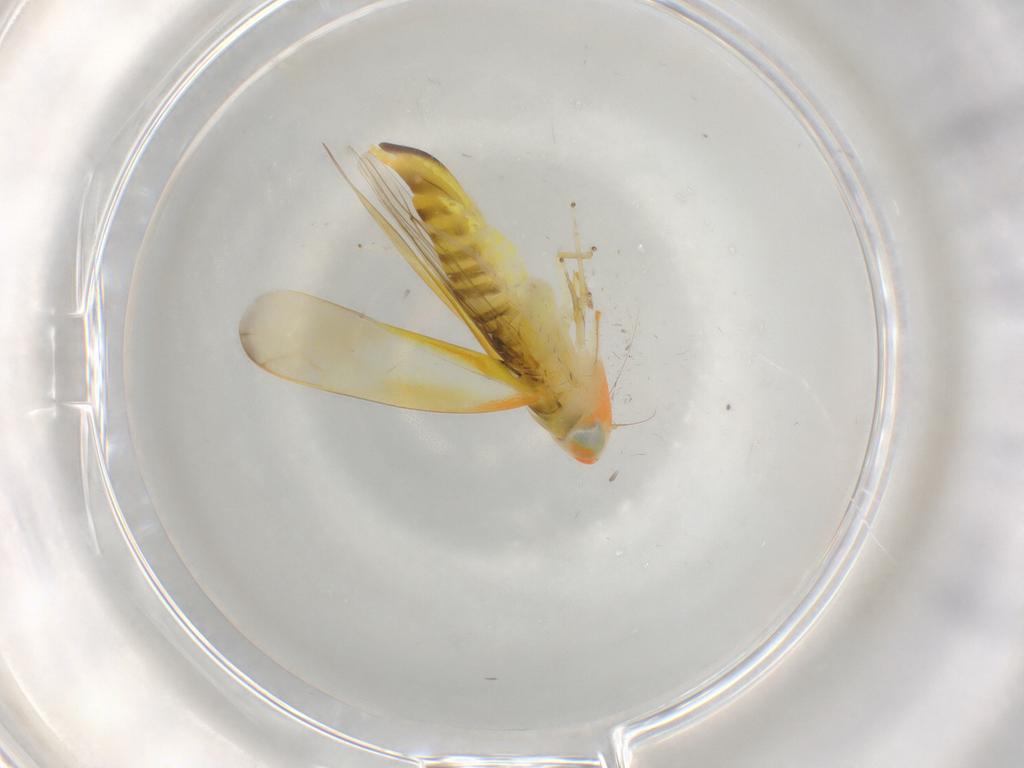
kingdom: Animalia
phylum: Arthropoda
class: Insecta
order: Hemiptera
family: Cicadellidae
